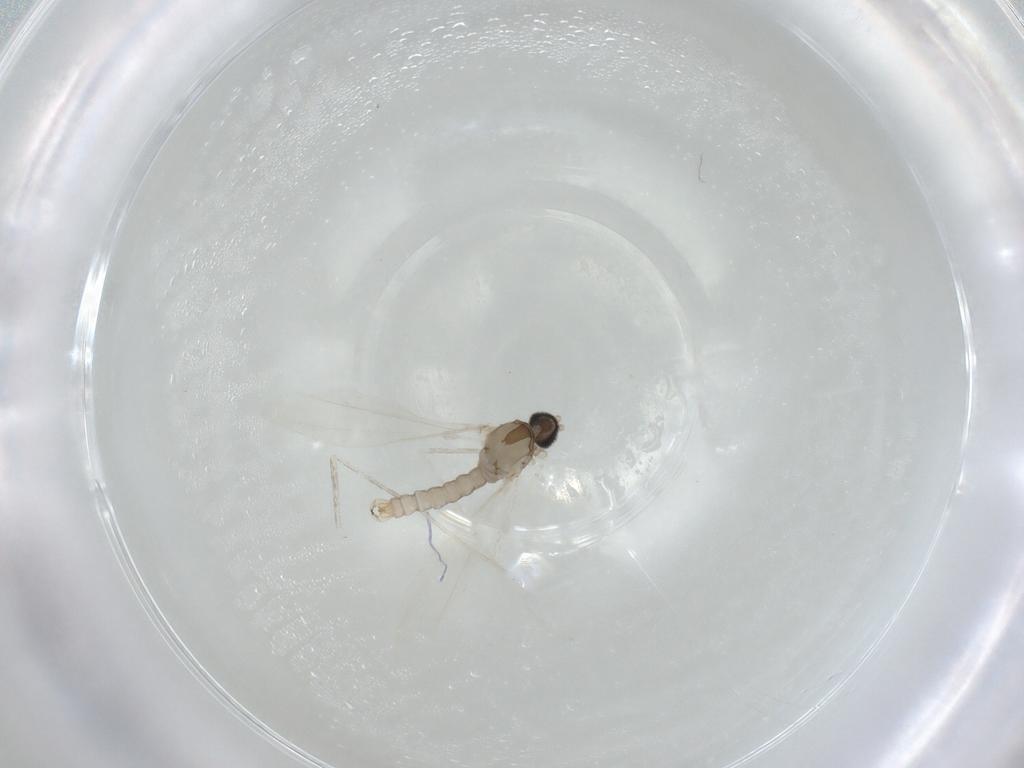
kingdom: Animalia
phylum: Arthropoda
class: Insecta
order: Diptera
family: Cecidomyiidae
